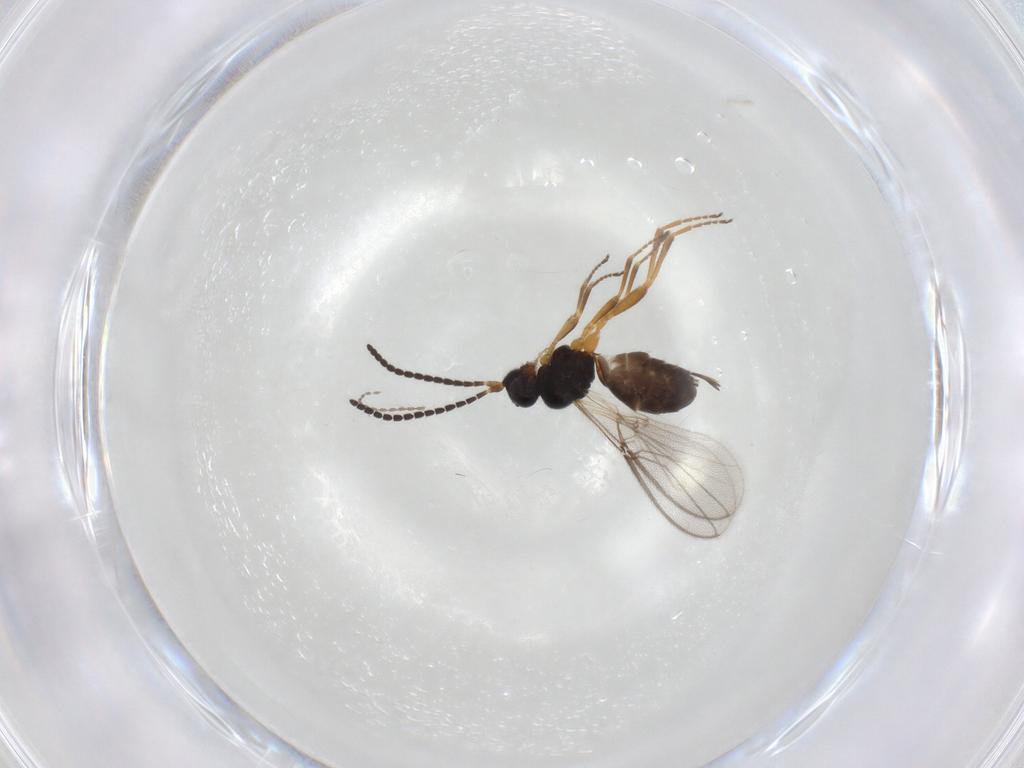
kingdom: Animalia
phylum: Arthropoda
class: Insecta
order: Hymenoptera
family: Braconidae
